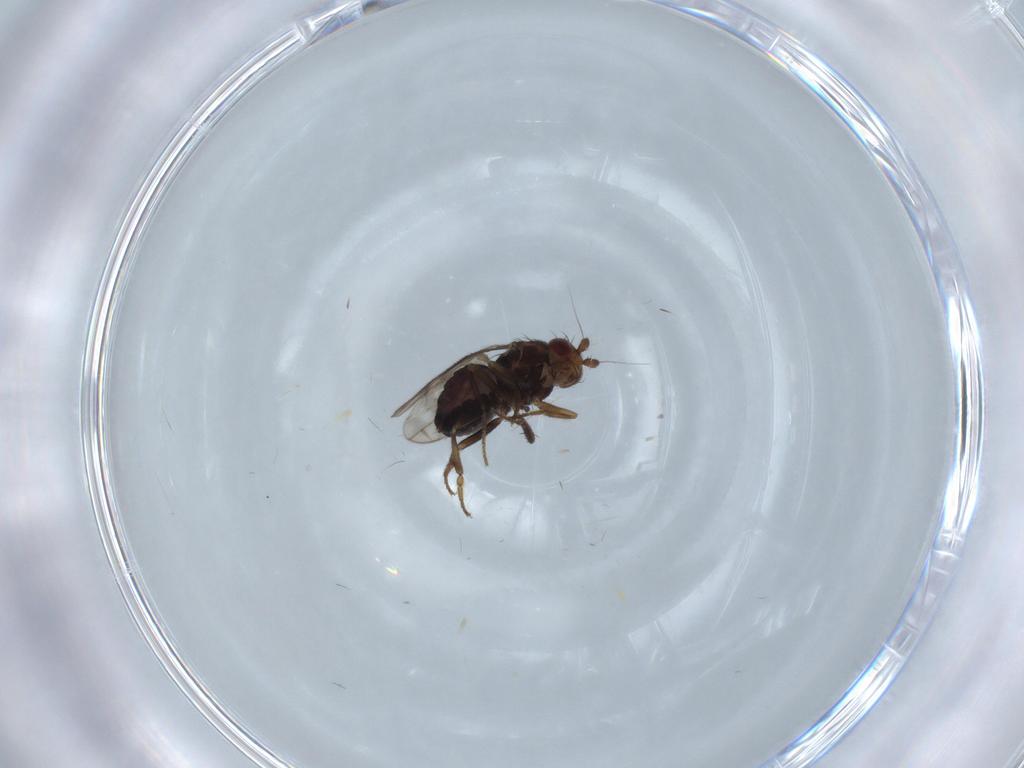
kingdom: Animalia
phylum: Arthropoda
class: Insecta
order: Diptera
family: Sphaeroceridae
